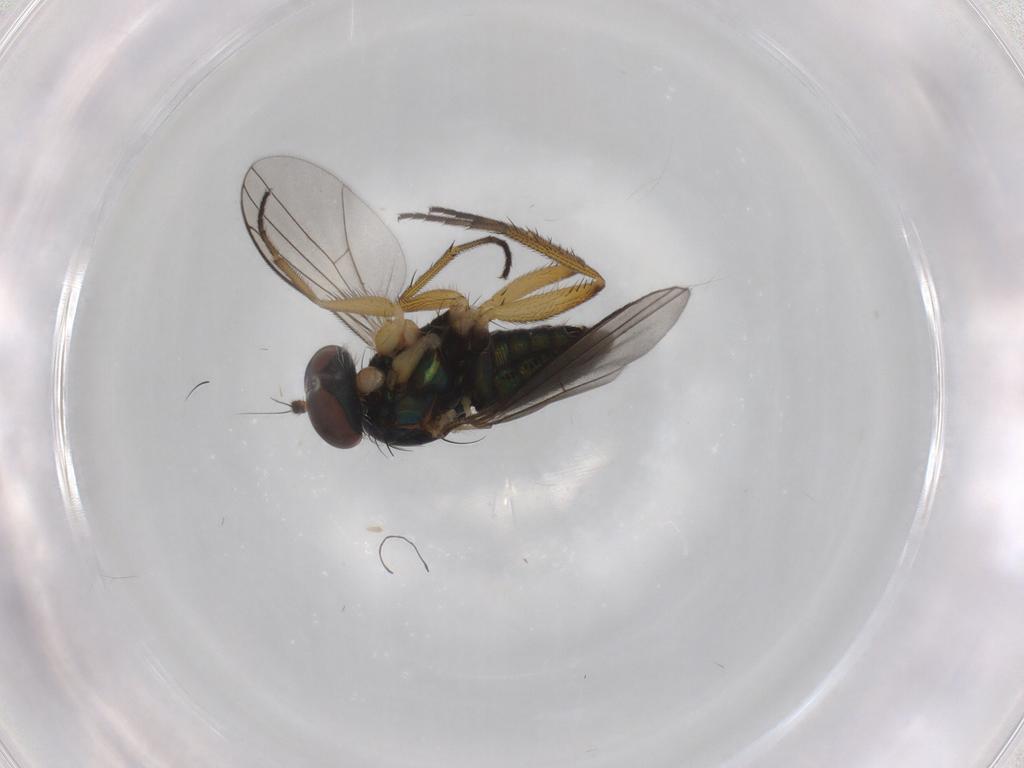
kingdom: Animalia
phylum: Arthropoda
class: Insecta
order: Diptera
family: Dolichopodidae
